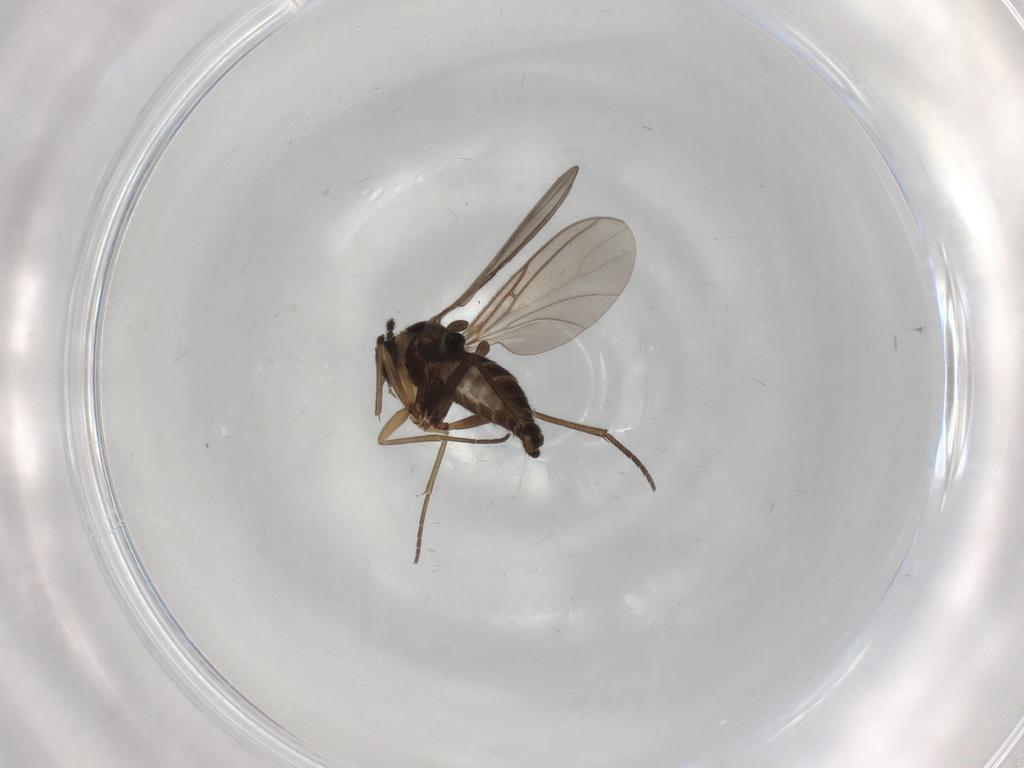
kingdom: Animalia
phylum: Arthropoda
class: Insecta
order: Diptera
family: Sciaridae
